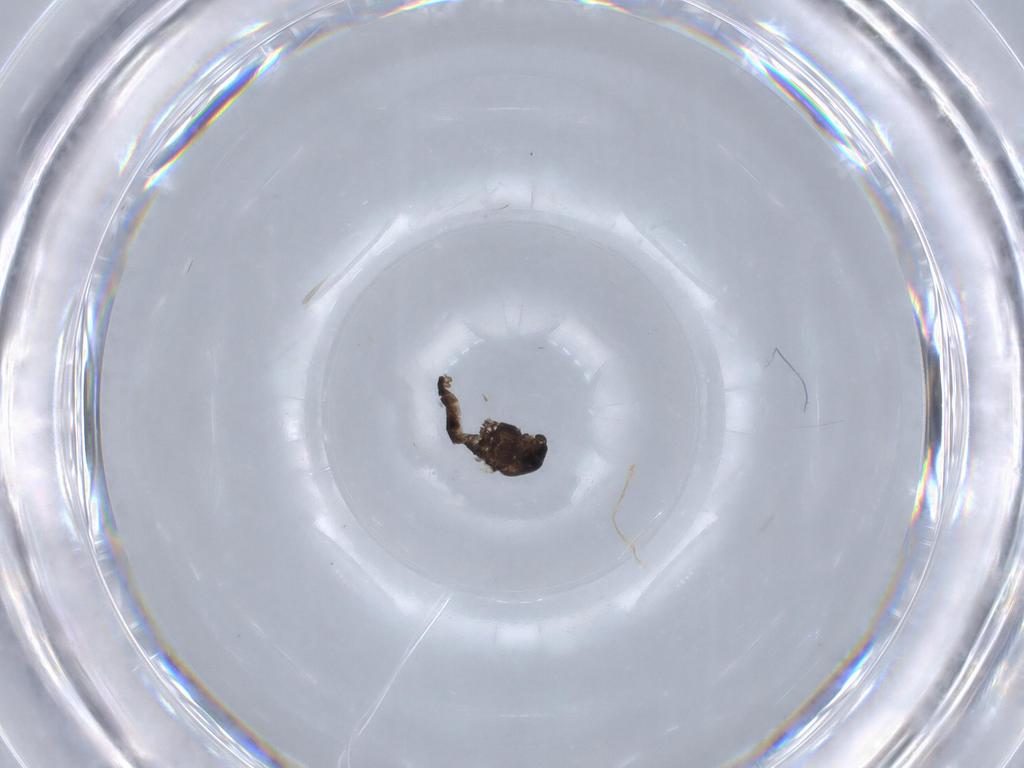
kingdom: Animalia
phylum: Arthropoda
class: Insecta
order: Diptera
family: Chironomidae
